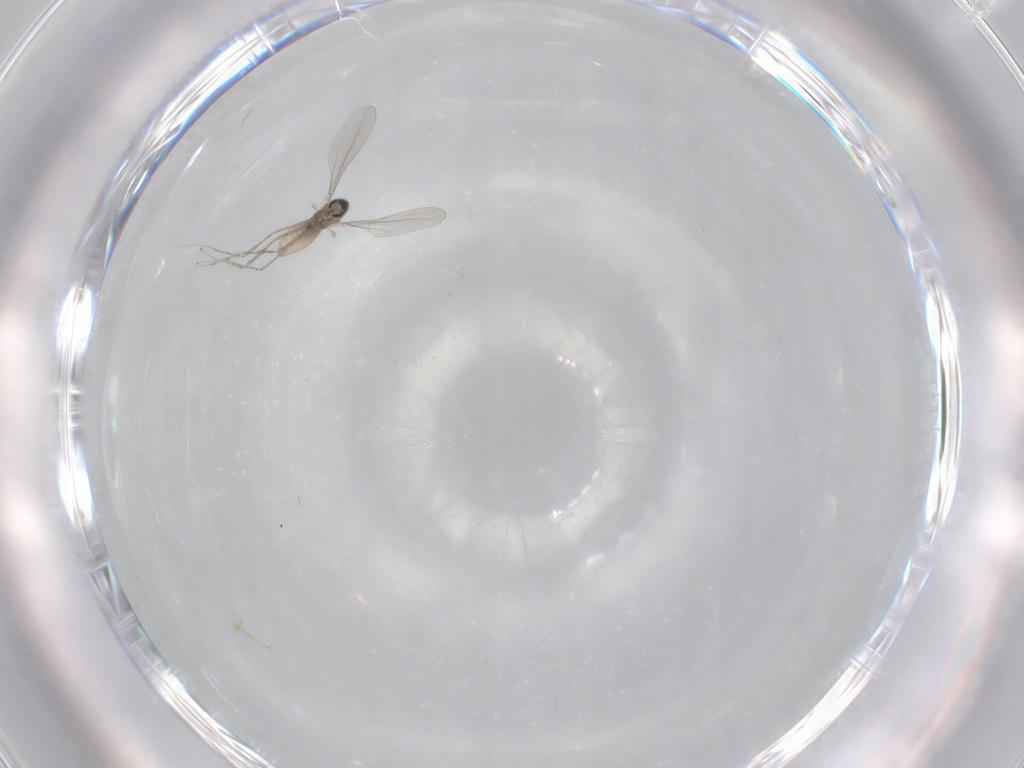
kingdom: Animalia
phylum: Arthropoda
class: Insecta
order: Diptera
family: Cecidomyiidae
